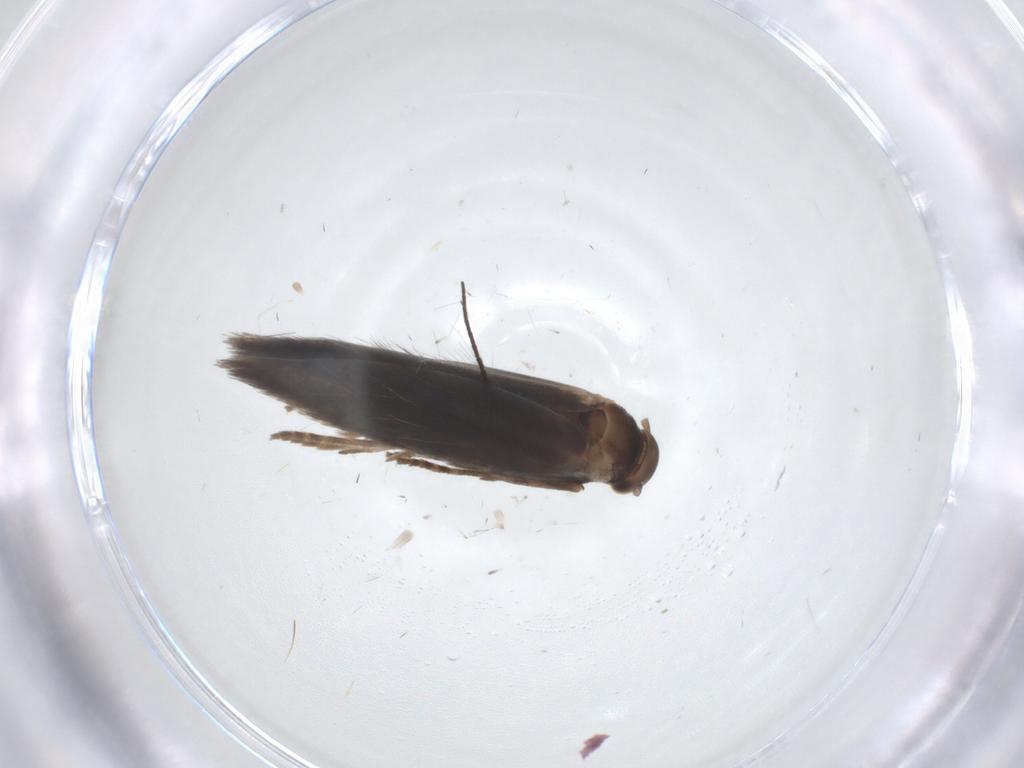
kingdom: Animalia
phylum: Arthropoda
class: Insecta
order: Lepidoptera
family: Elachistidae
